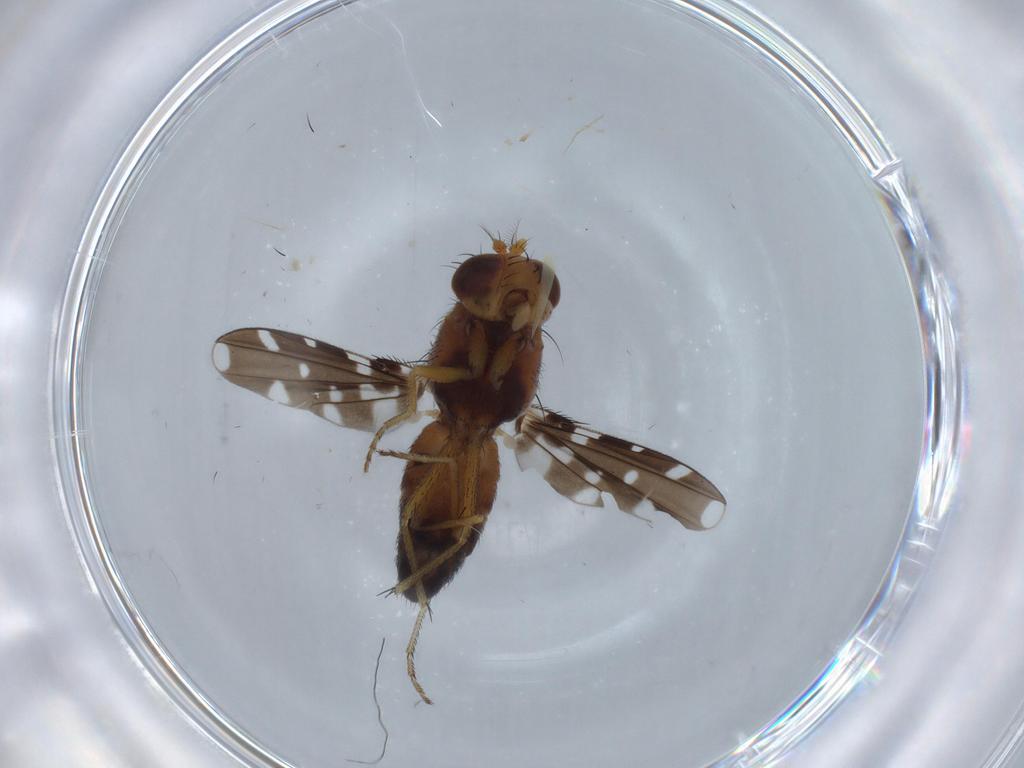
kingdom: Animalia
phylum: Arthropoda
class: Insecta
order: Diptera
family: Ephydridae
